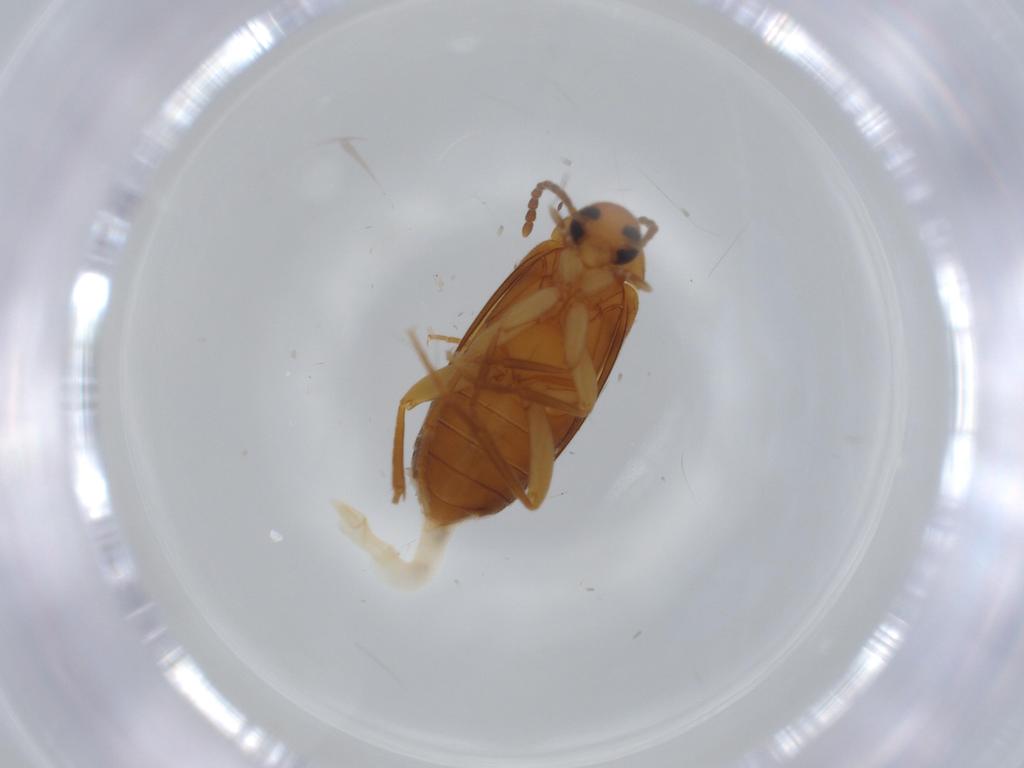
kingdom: Animalia
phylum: Arthropoda
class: Insecta
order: Coleoptera
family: Scraptiidae
